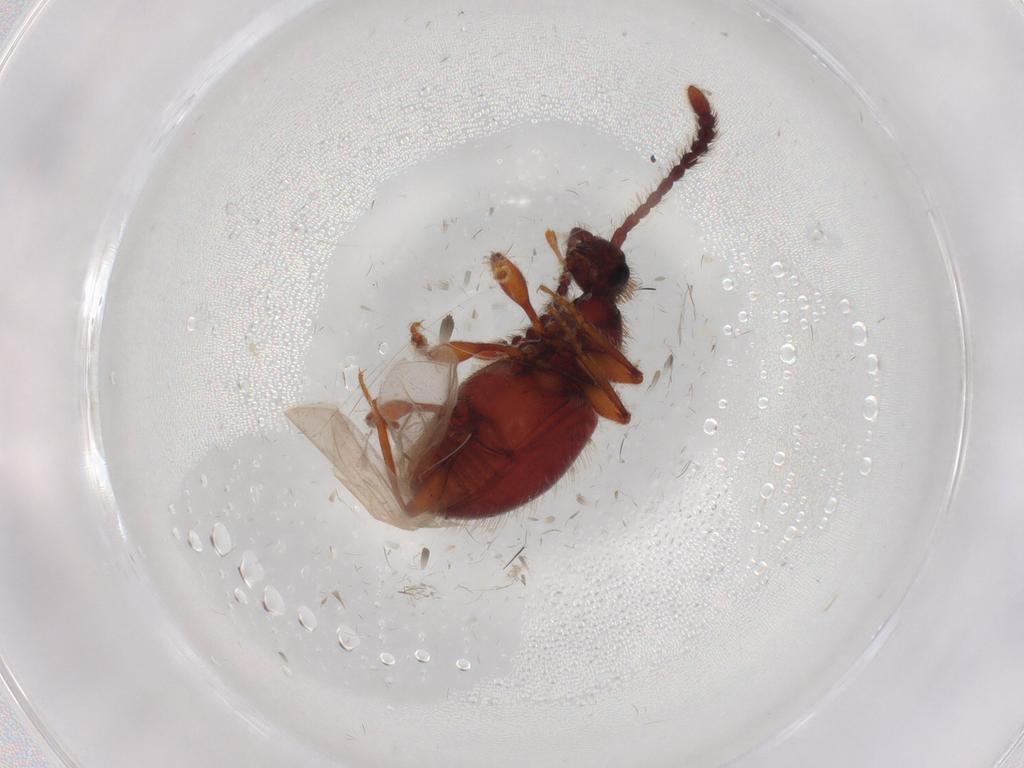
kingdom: Animalia
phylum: Arthropoda
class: Insecta
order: Coleoptera
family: Staphylinidae
